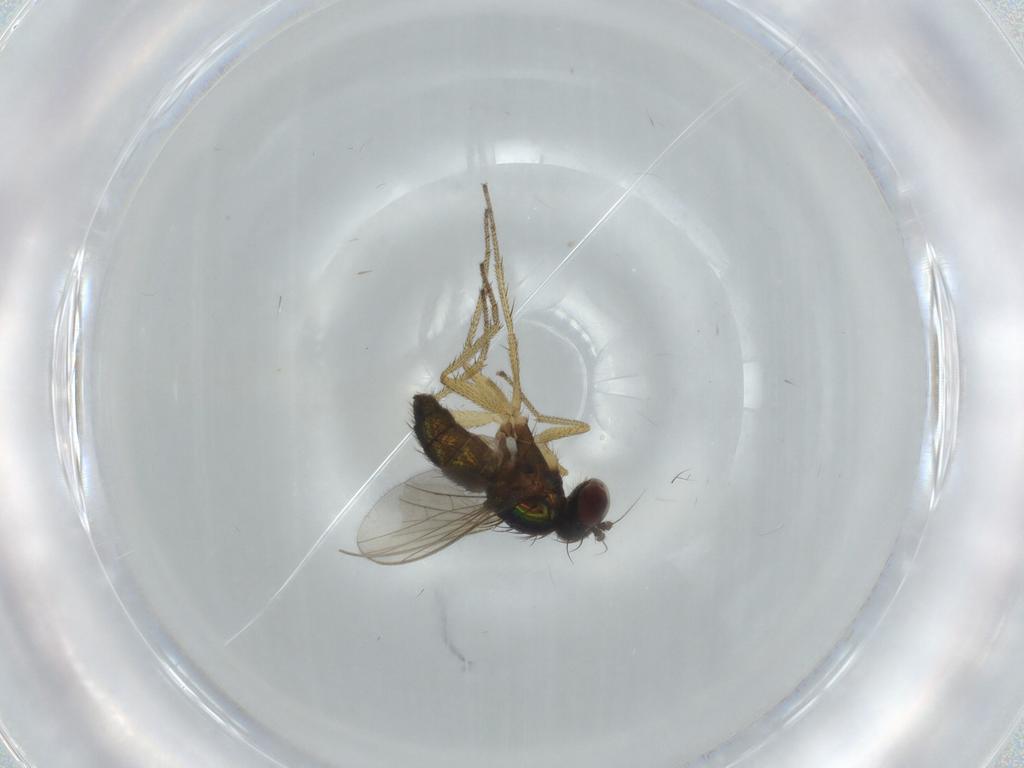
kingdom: Animalia
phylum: Arthropoda
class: Insecta
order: Diptera
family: Dolichopodidae
